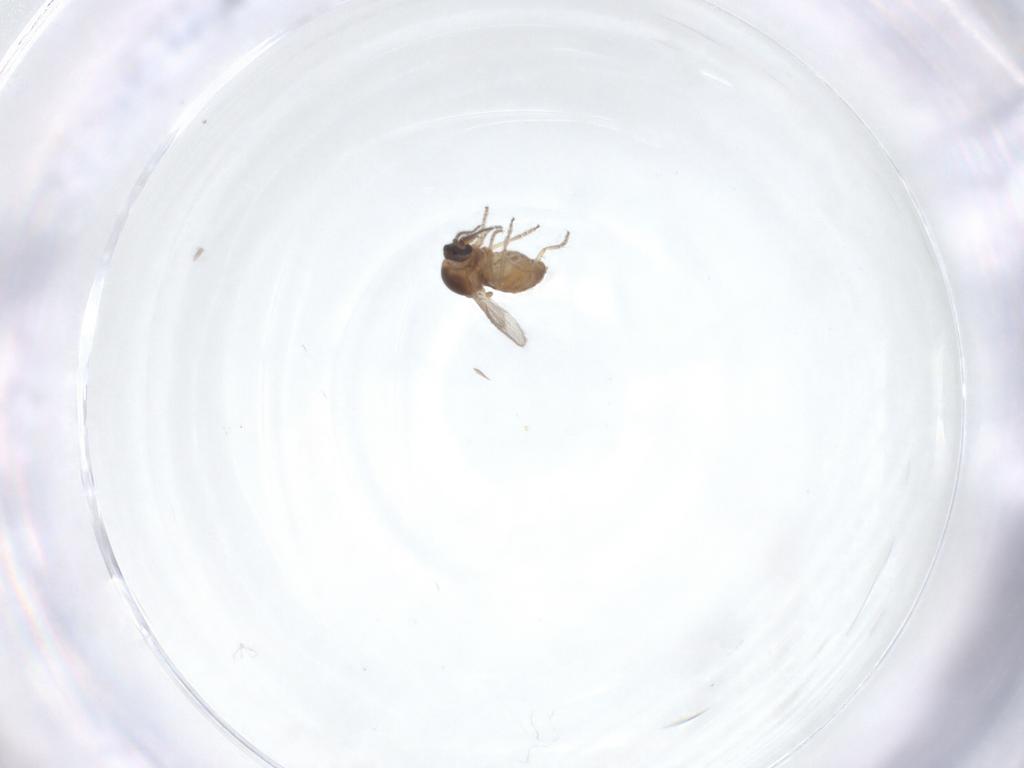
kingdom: Animalia
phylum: Arthropoda
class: Insecta
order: Diptera
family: Ceratopogonidae
